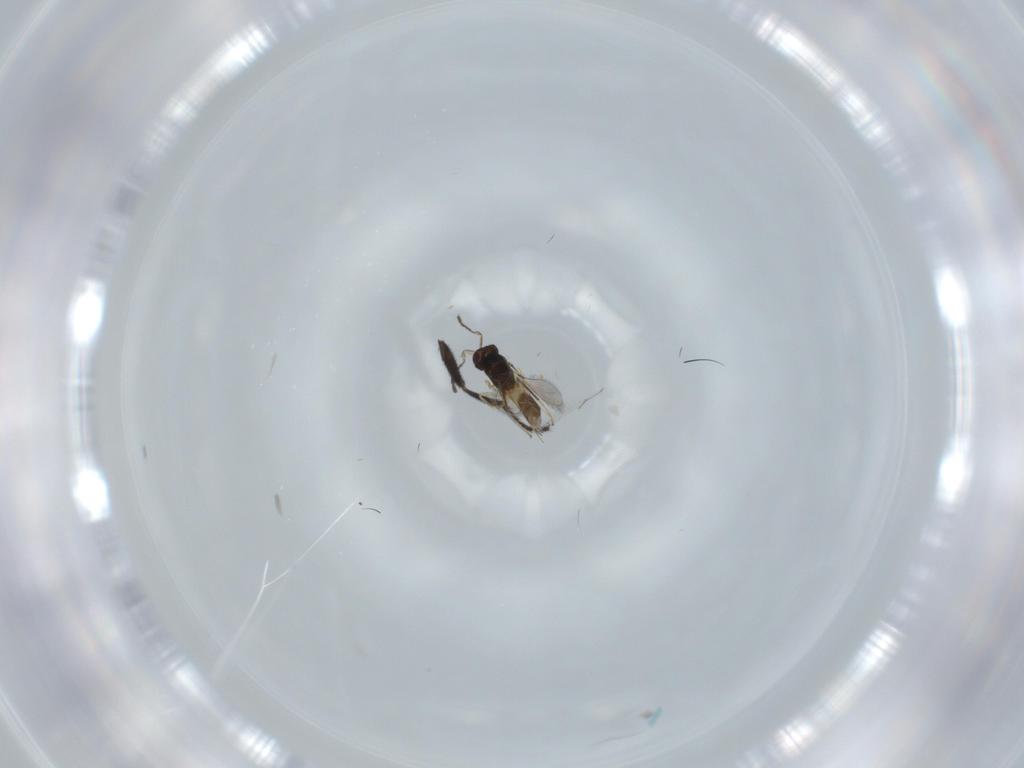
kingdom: Animalia
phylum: Arthropoda
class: Insecta
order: Hymenoptera
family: Mymaridae
